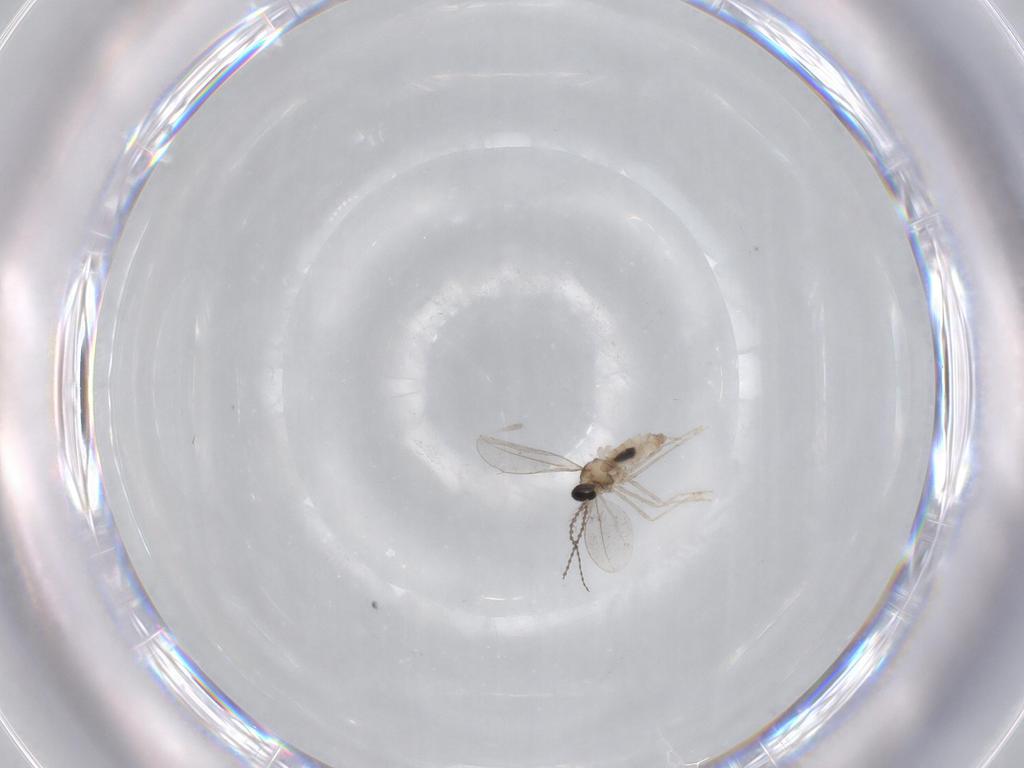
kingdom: Animalia
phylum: Arthropoda
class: Insecta
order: Diptera
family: Cecidomyiidae
